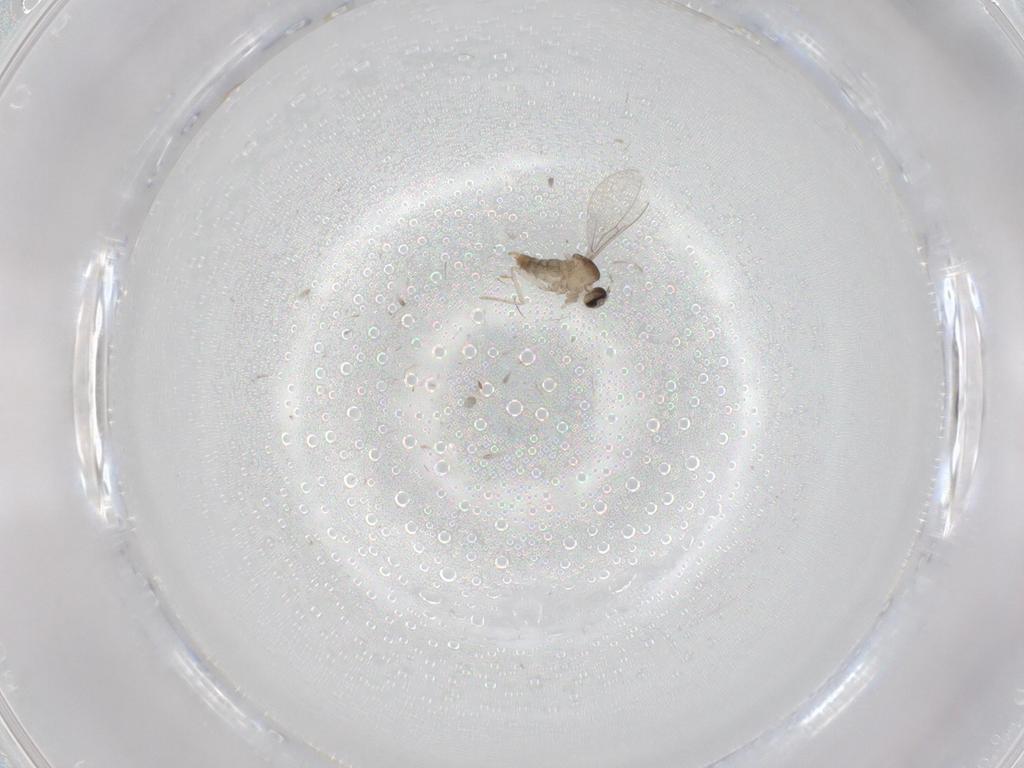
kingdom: Animalia
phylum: Arthropoda
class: Insecta
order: Diptera
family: Cecidomyiidae
